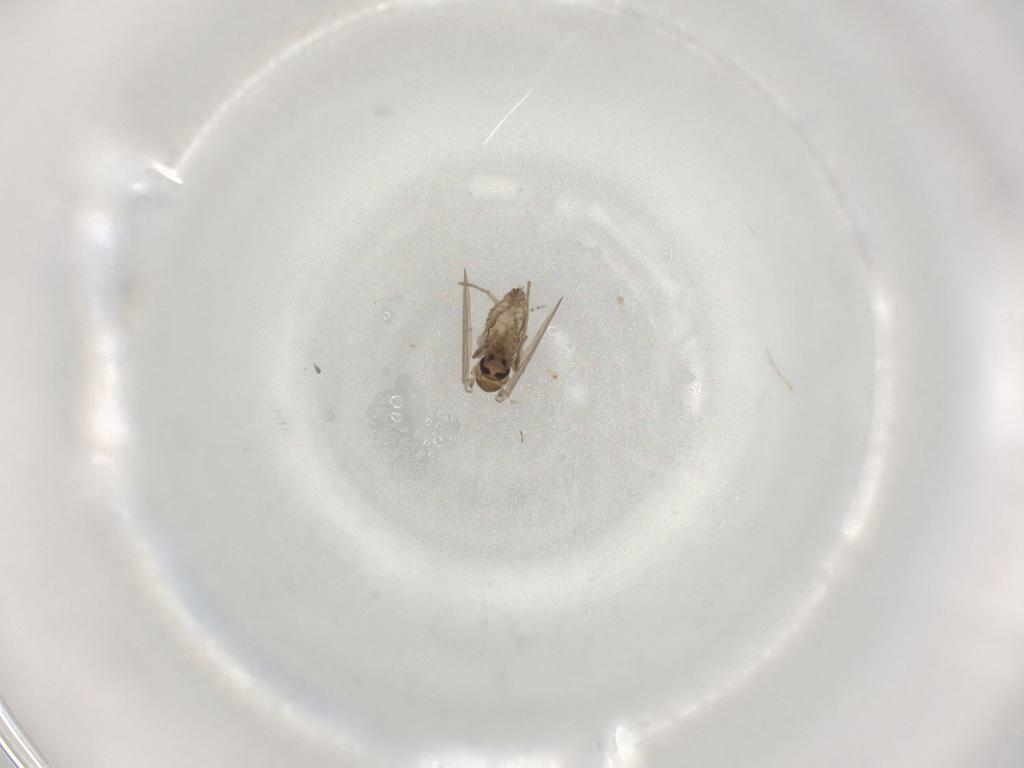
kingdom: Animalia
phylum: Arthropoda
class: Insecta
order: Diptera
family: Psychodidae
